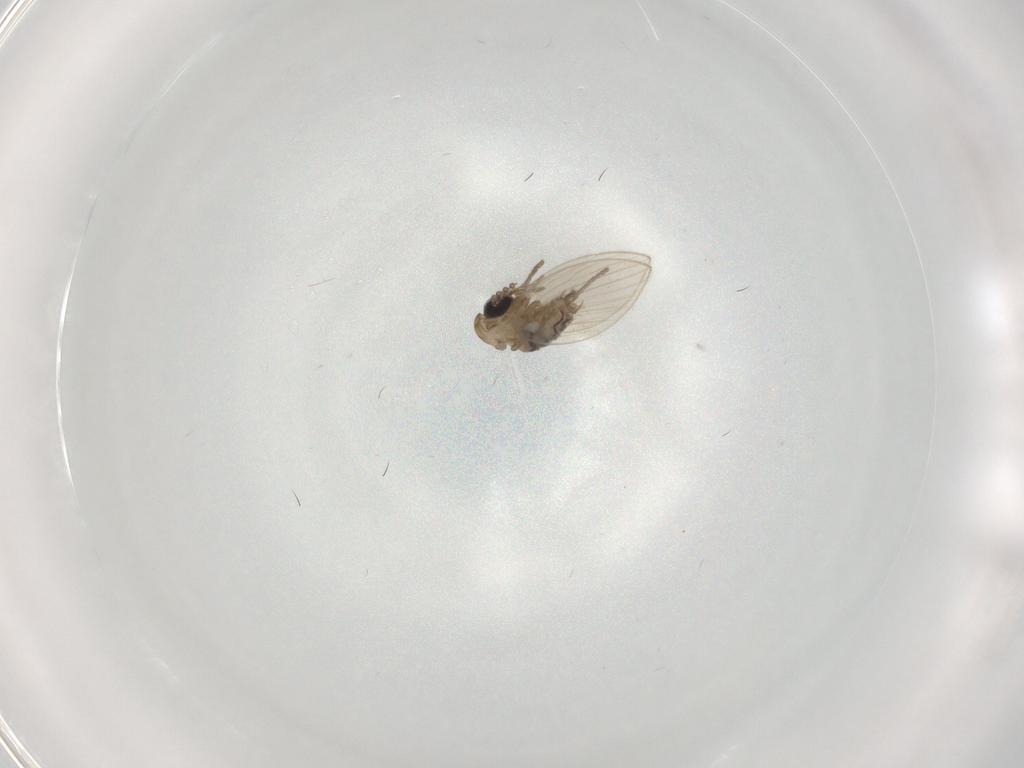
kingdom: Animalia
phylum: Arthropoda
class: Insecta
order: Diptera
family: Psychodidae
